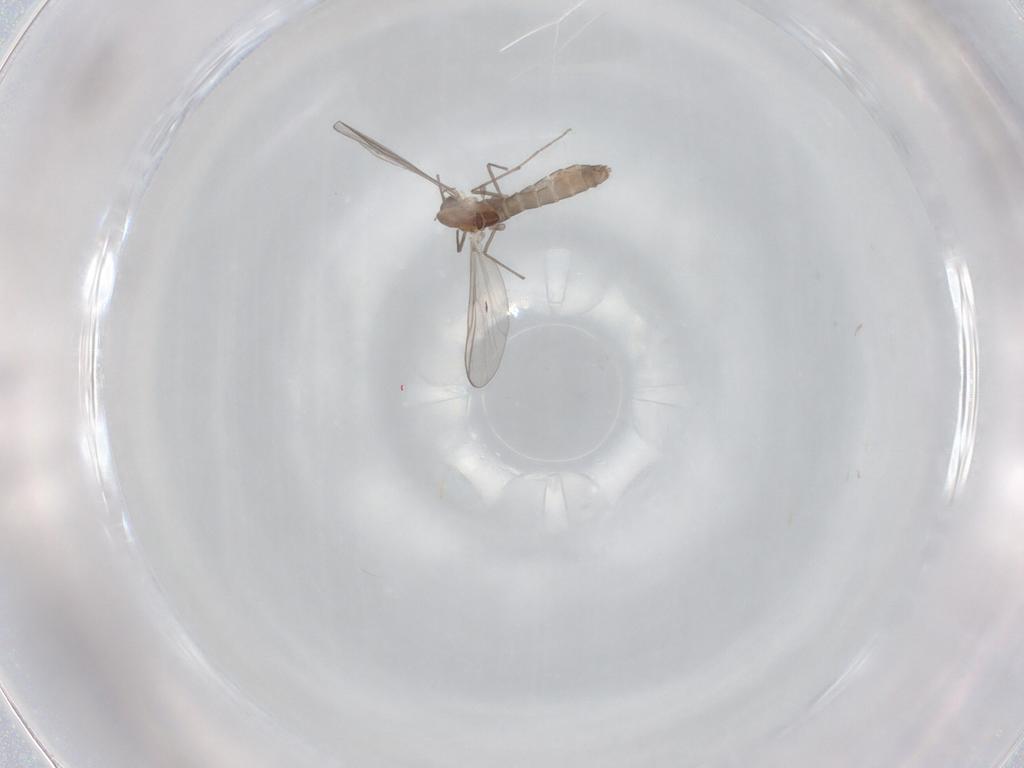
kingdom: Animalia
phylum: Arthropoda
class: Insecta
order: Diptera
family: Chironomidae
